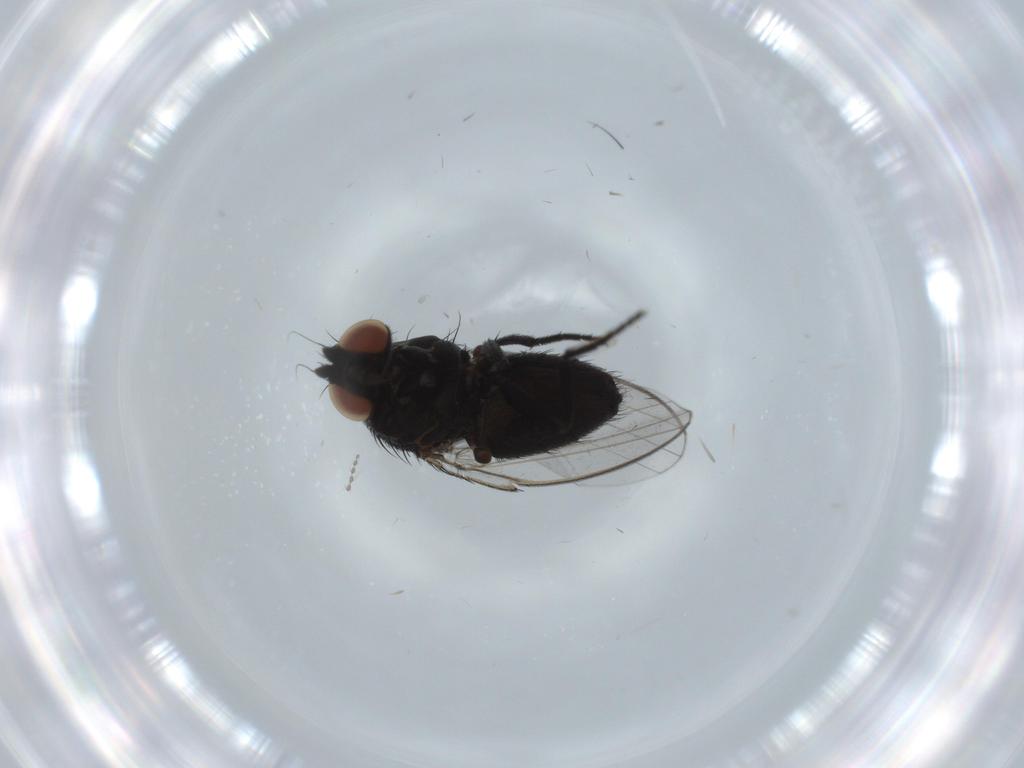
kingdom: Animalia
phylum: Arthropoda
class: Insecta
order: Diptera
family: Milichiidae
